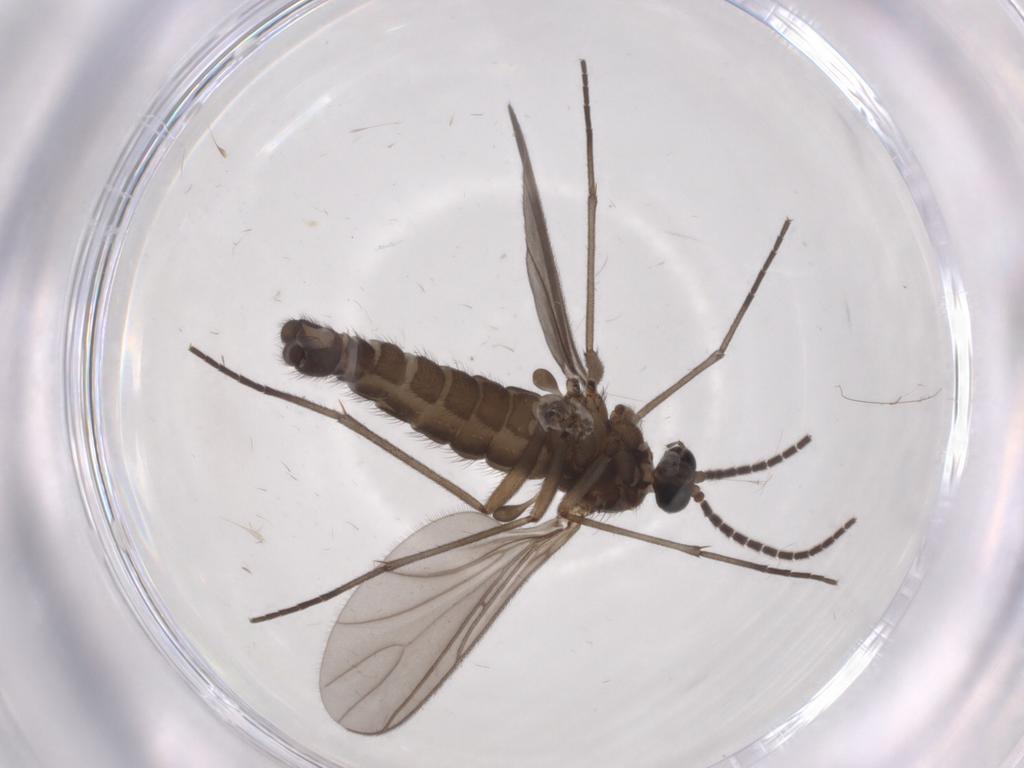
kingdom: Animalia
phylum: Arthropoda
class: Insecta
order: Diptera
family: Sciaridae
